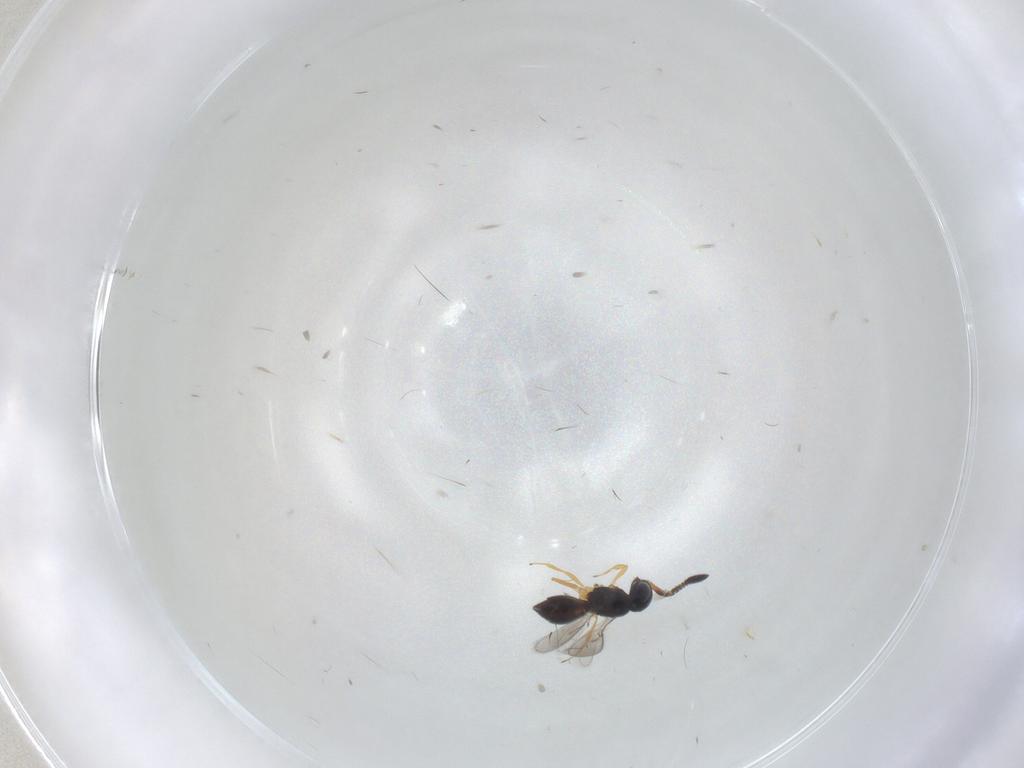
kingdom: Animalia
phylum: Arthropoda
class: Insecta
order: Hymenoptera
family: Scelionidae
